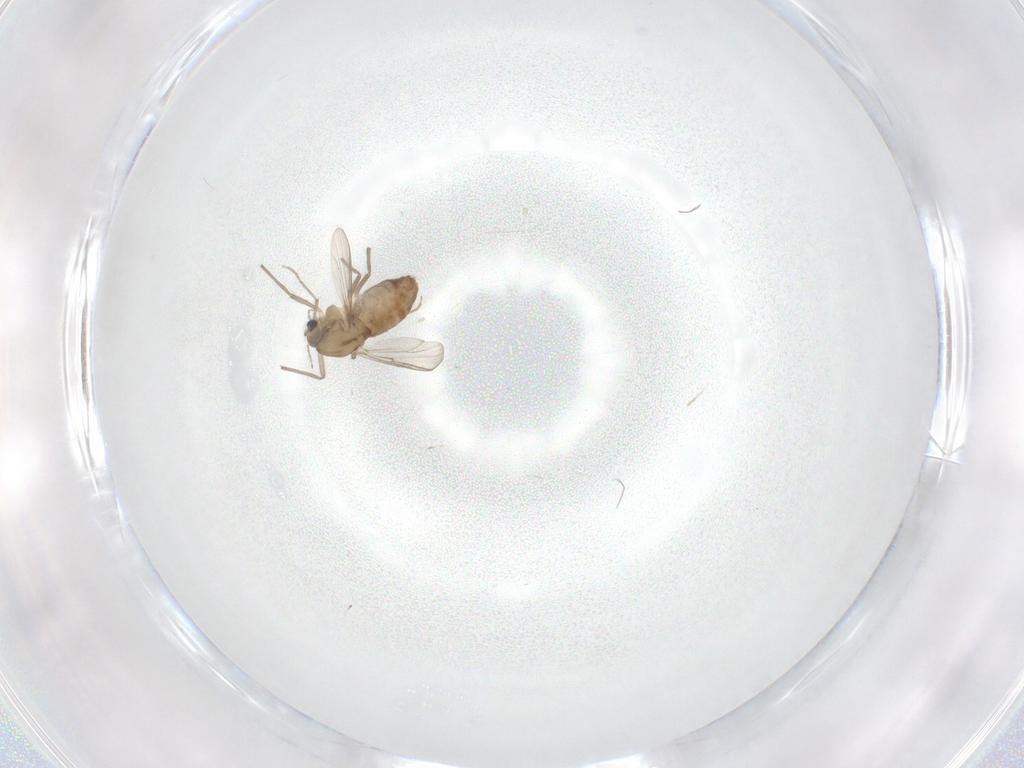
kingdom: Animalia
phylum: Arthropoda
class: Insecta
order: Diptera
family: Chironomidae
